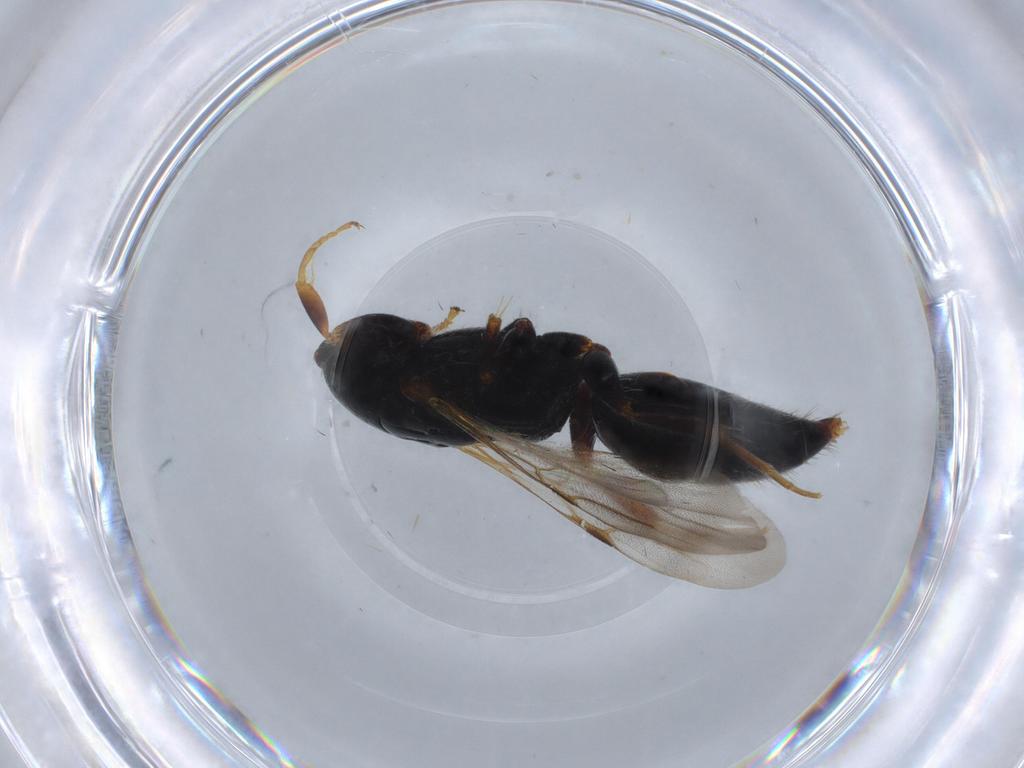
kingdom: Animalia
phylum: Arthropoda
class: Insecta
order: Hymenoptera
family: Bethylidae
